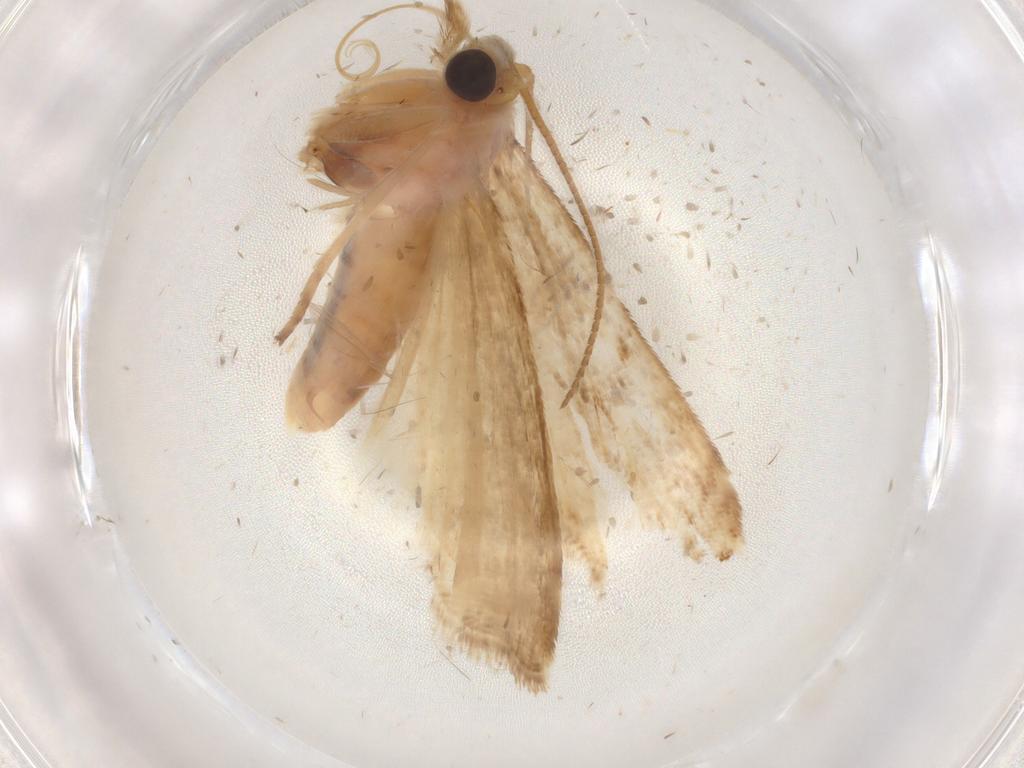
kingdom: Animalia
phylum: Arthropoda
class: Insecta
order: Lepidoptera
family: Pyralidae
